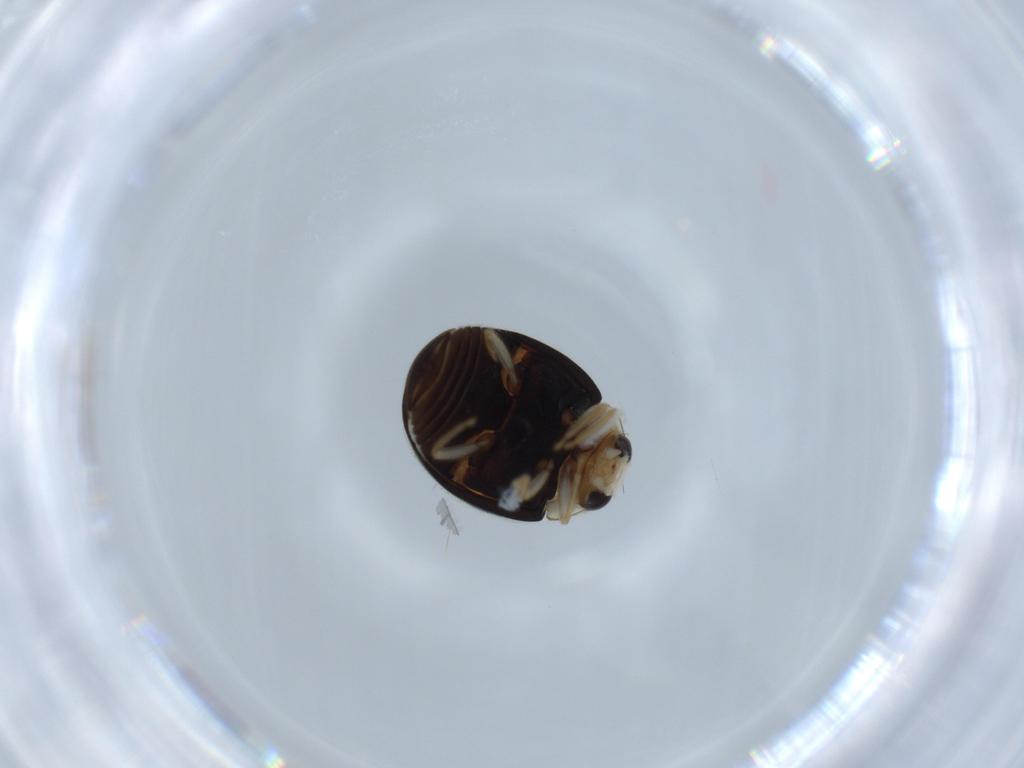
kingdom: Animalia
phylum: Arthropoda
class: Insecta
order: Coleoptera
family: Coccinellidae
